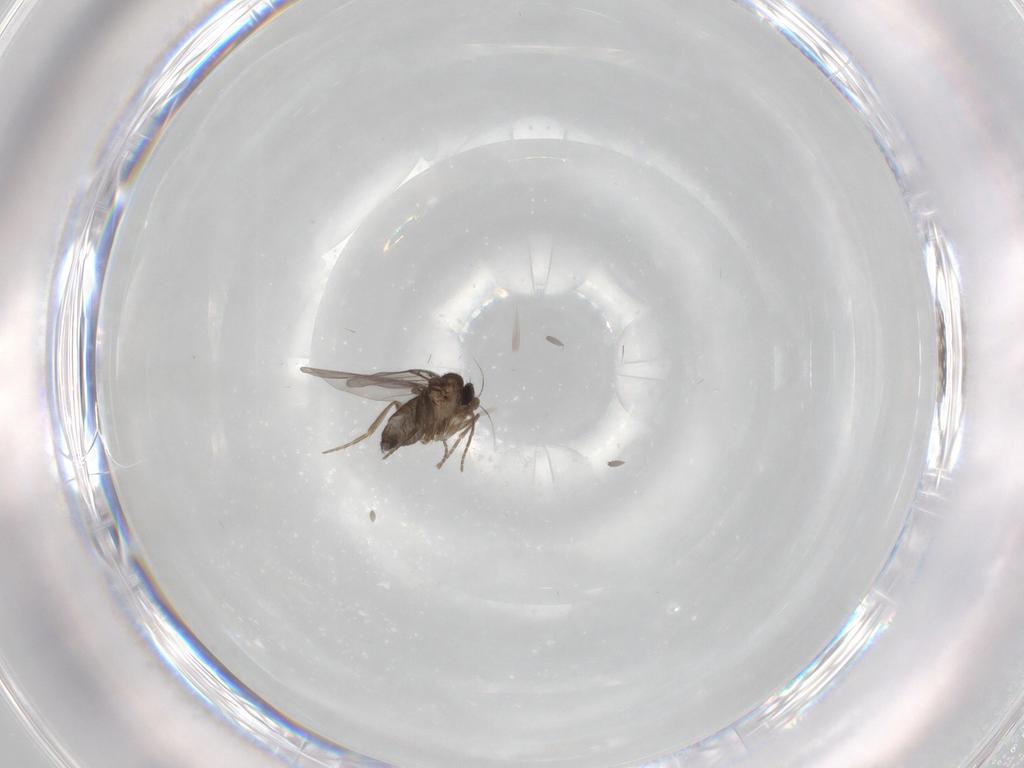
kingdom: Animalia
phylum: Arthropoda
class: Insecta
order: Diptera
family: Phoridae
